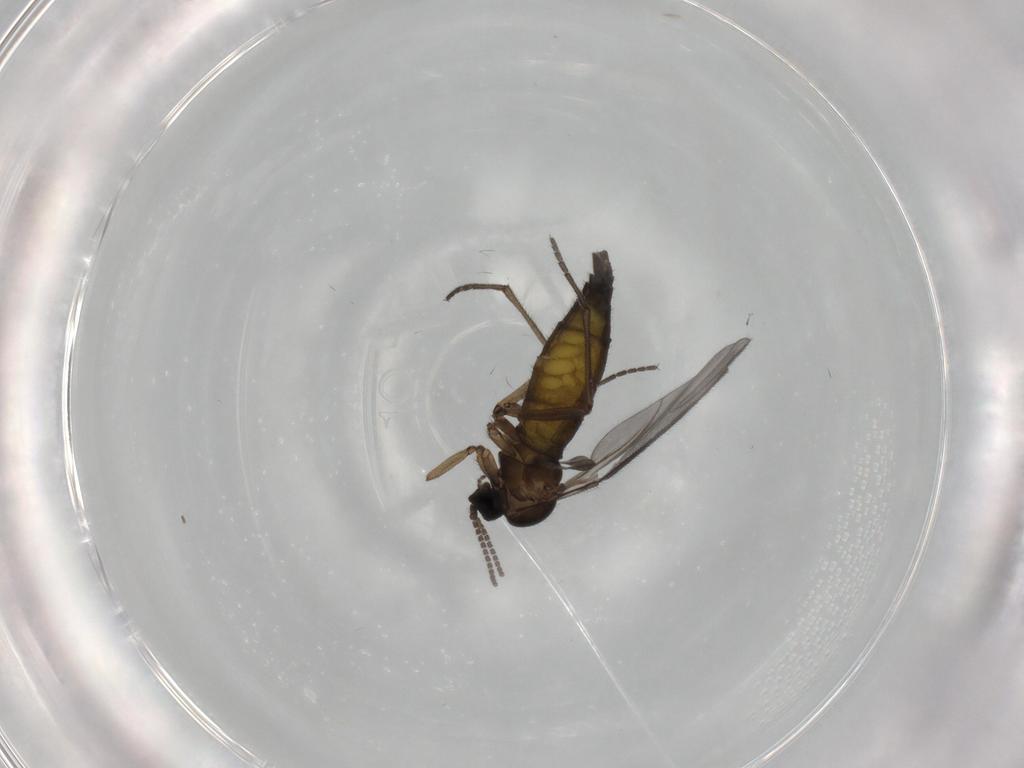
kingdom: Animalia
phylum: Arthropoda
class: Insecta
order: Diptera
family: Sciaridae
